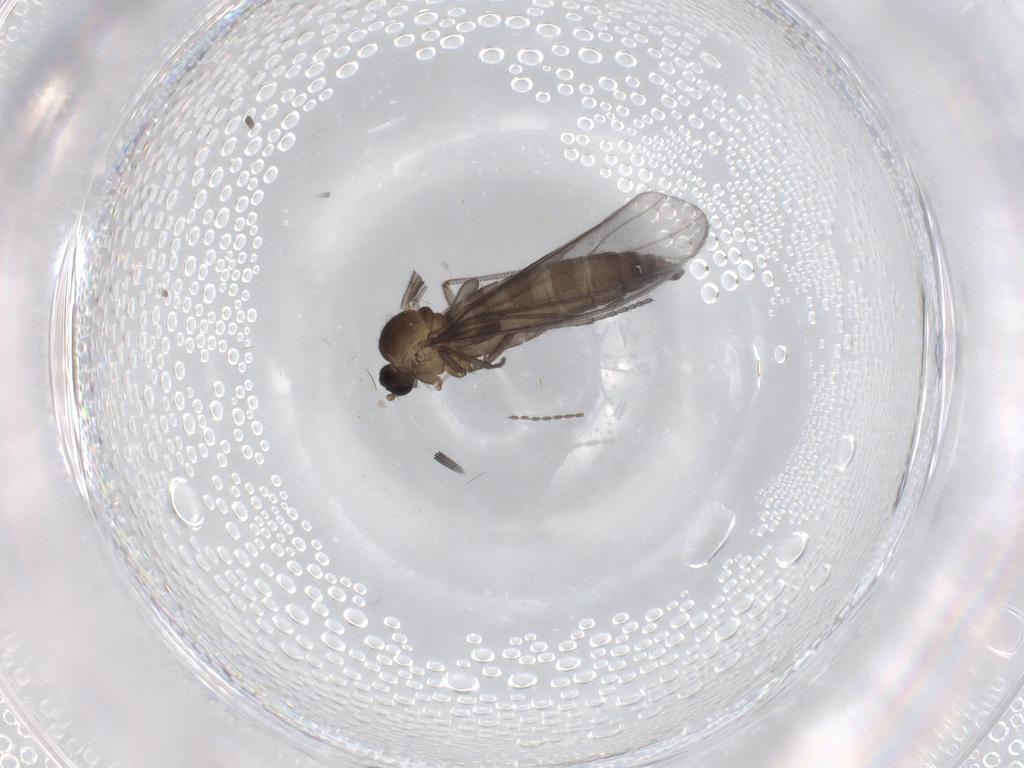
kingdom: Animalia
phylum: Arthropoda
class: Insecta
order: Diptera
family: Sciaridae
